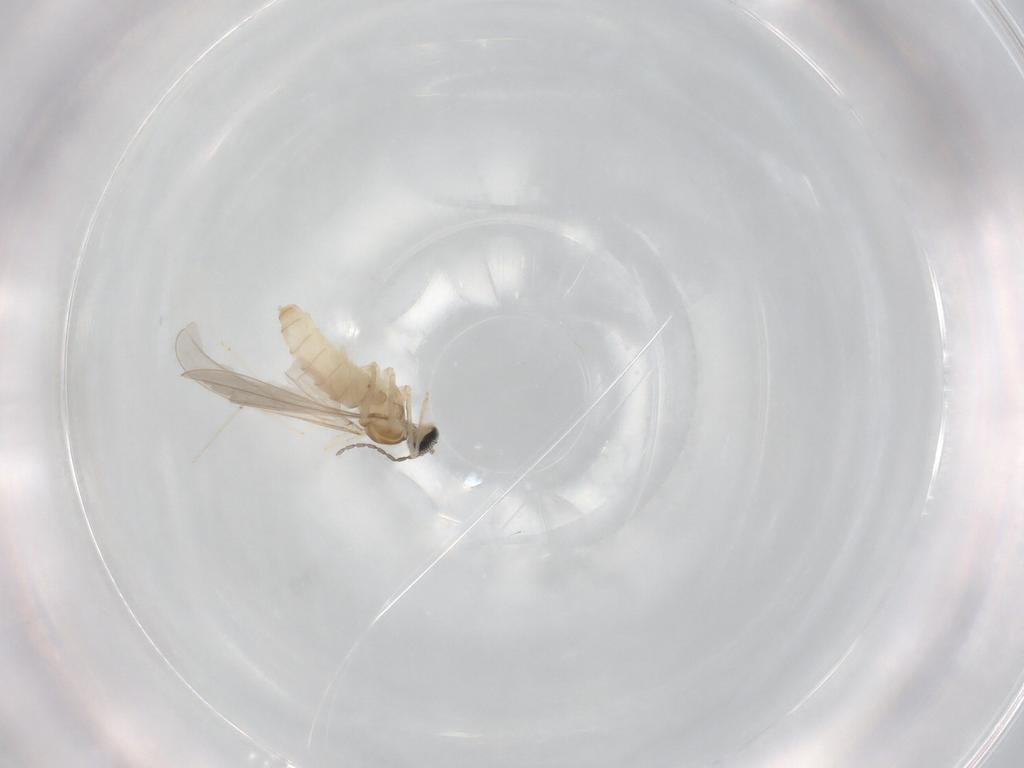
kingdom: Animalia
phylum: Arthropoda
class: Insecta
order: Diptera
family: Cecidomyiidae
